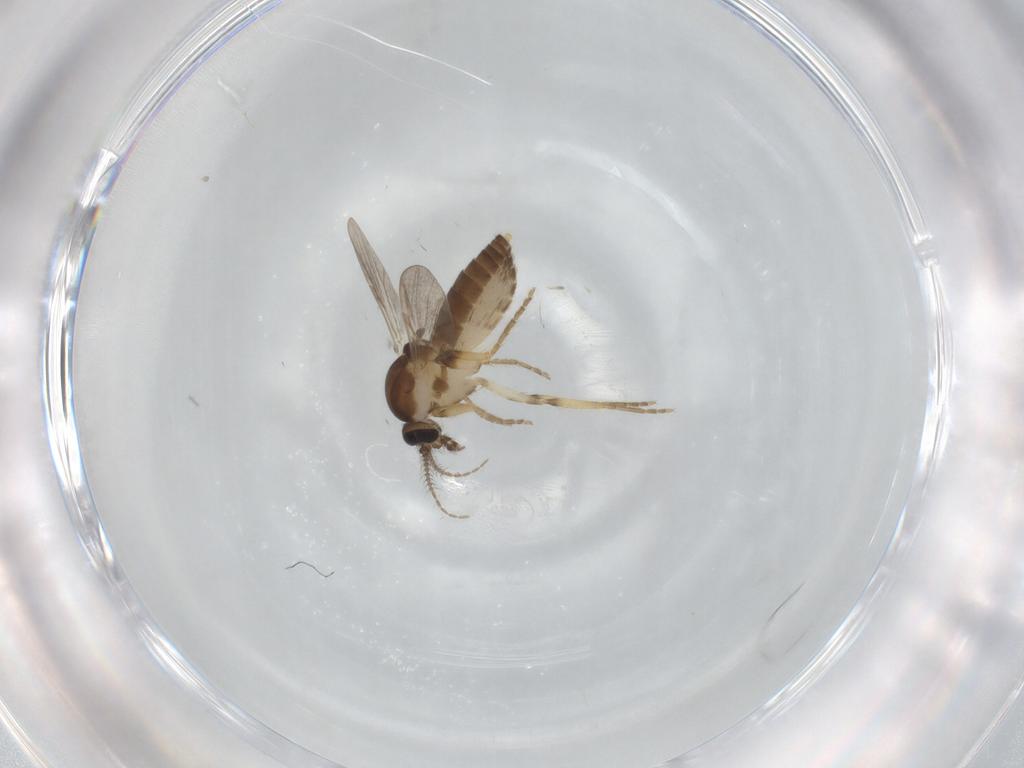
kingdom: Animalia
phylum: Arthropoda
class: Insecta
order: Diptera
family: Ceratopogonidae
